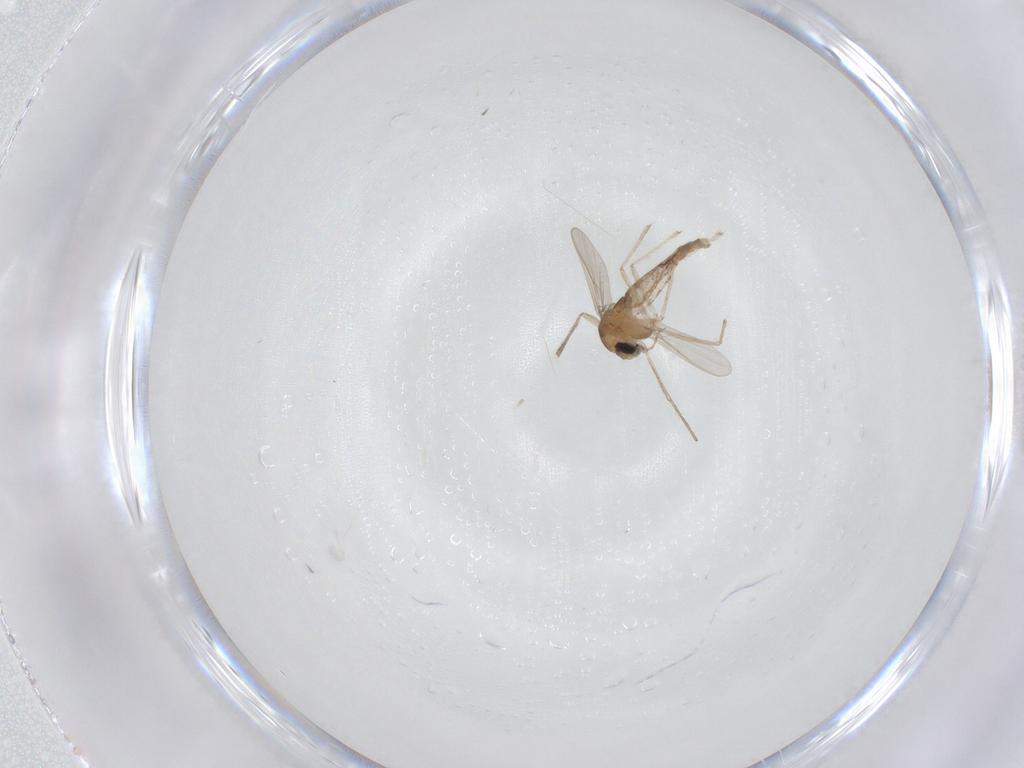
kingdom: Animalia
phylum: Arthropoda
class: Insecta
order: Diptera
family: Chironomidae
